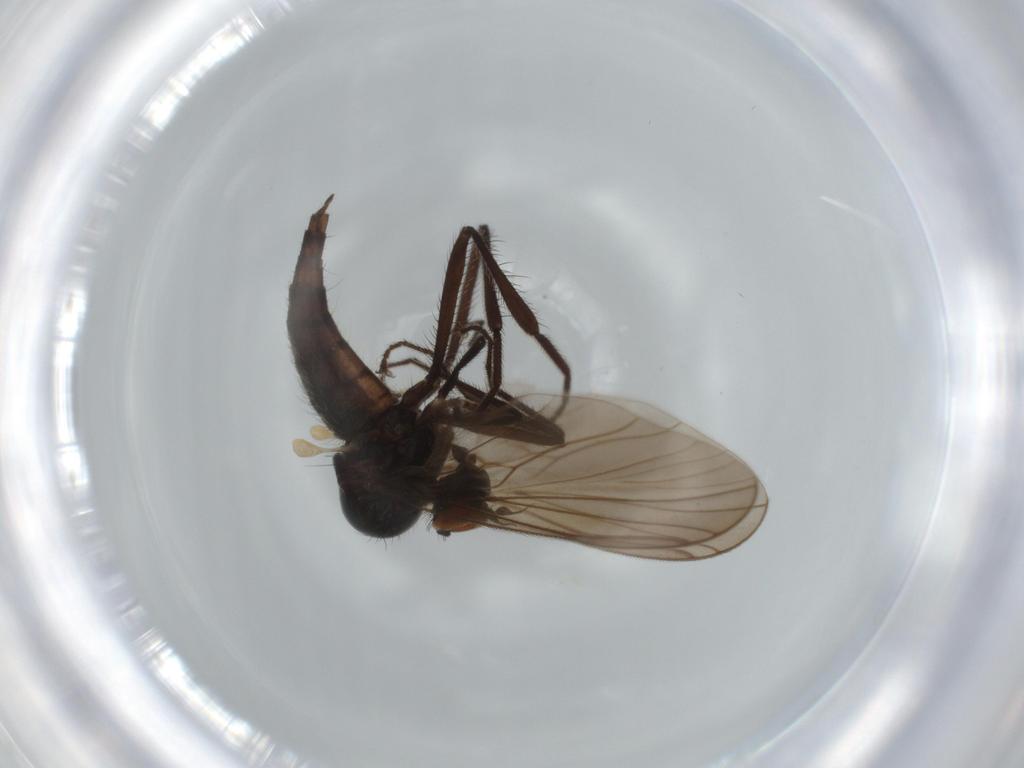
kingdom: Animalia
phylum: Arthropoda
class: Insecta
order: Diptera
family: Hybotidae
